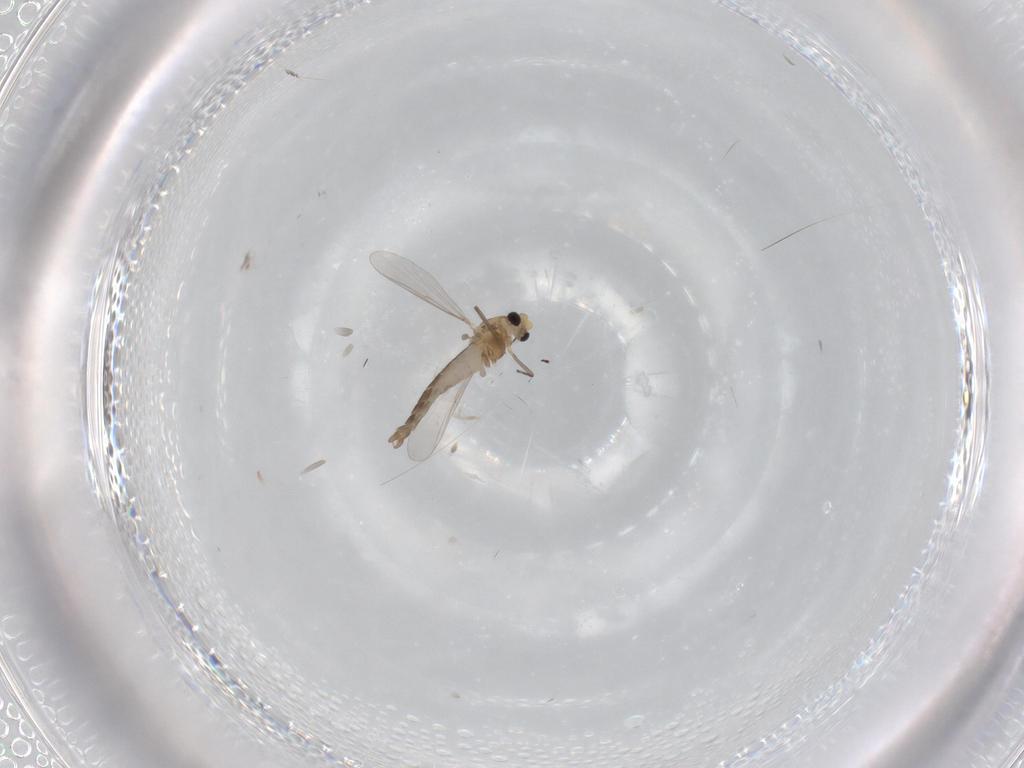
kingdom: Animalia
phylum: Arthropoda
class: Insecta
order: Diptera
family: Chironomidae
